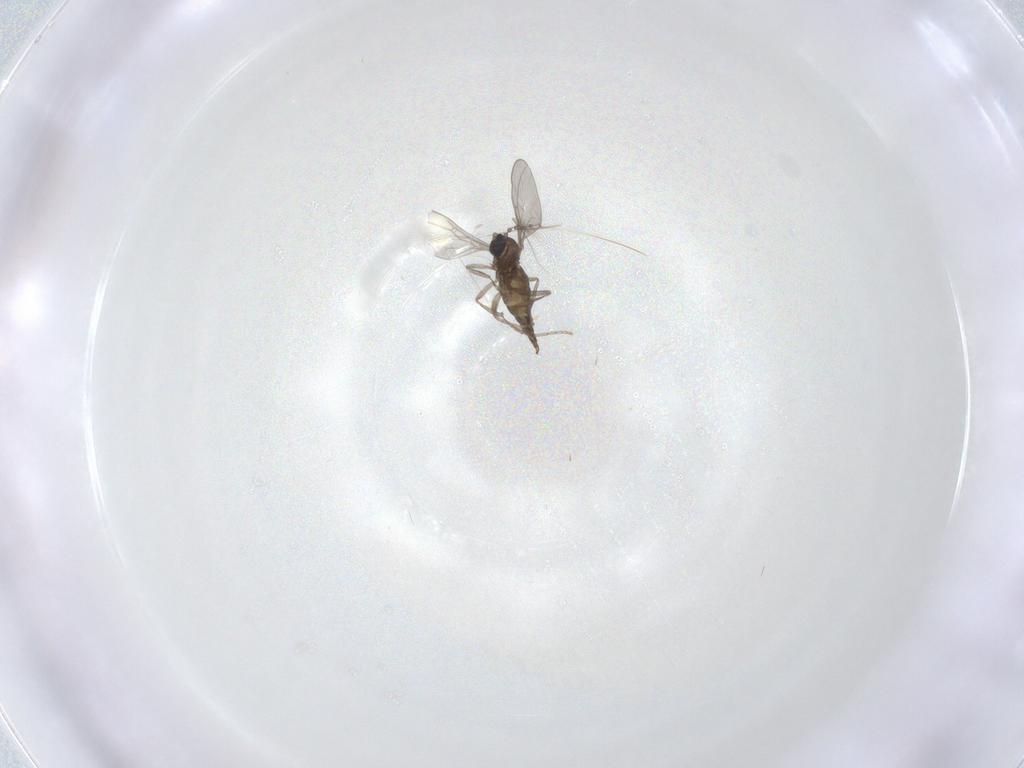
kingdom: Animalia
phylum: Arthropoda
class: Insecta
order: Diptera
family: Cecidomyiidae
